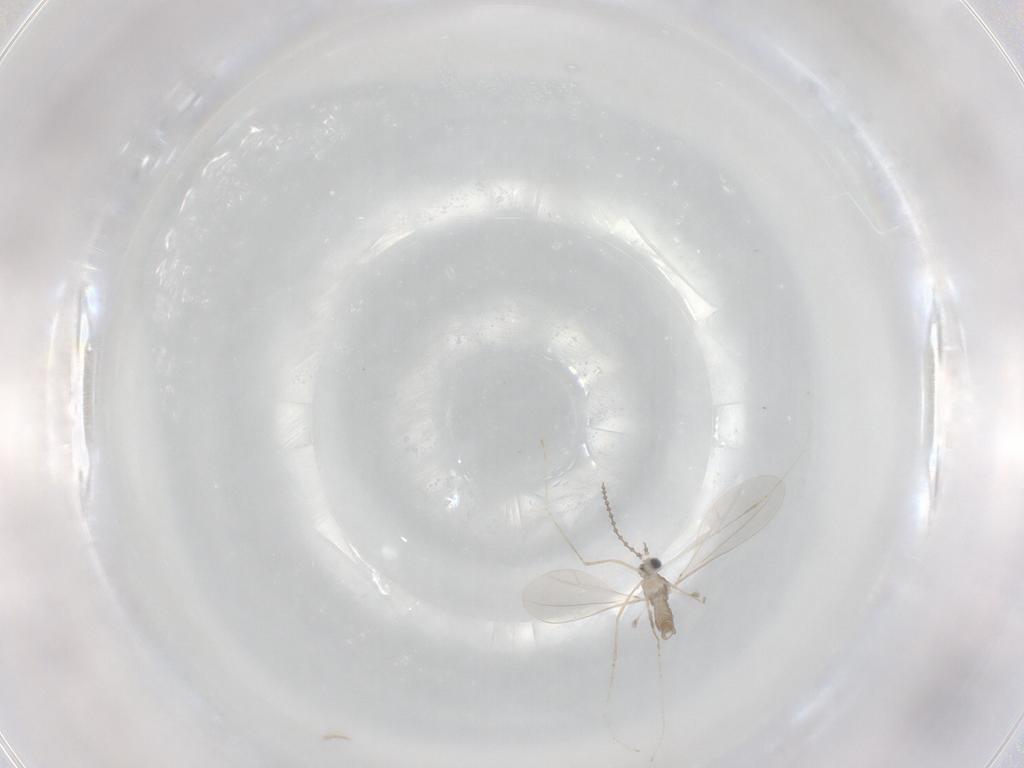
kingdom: Animalia
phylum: Arthropoda
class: Insecta
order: Diptera
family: Cecidomyiidae
